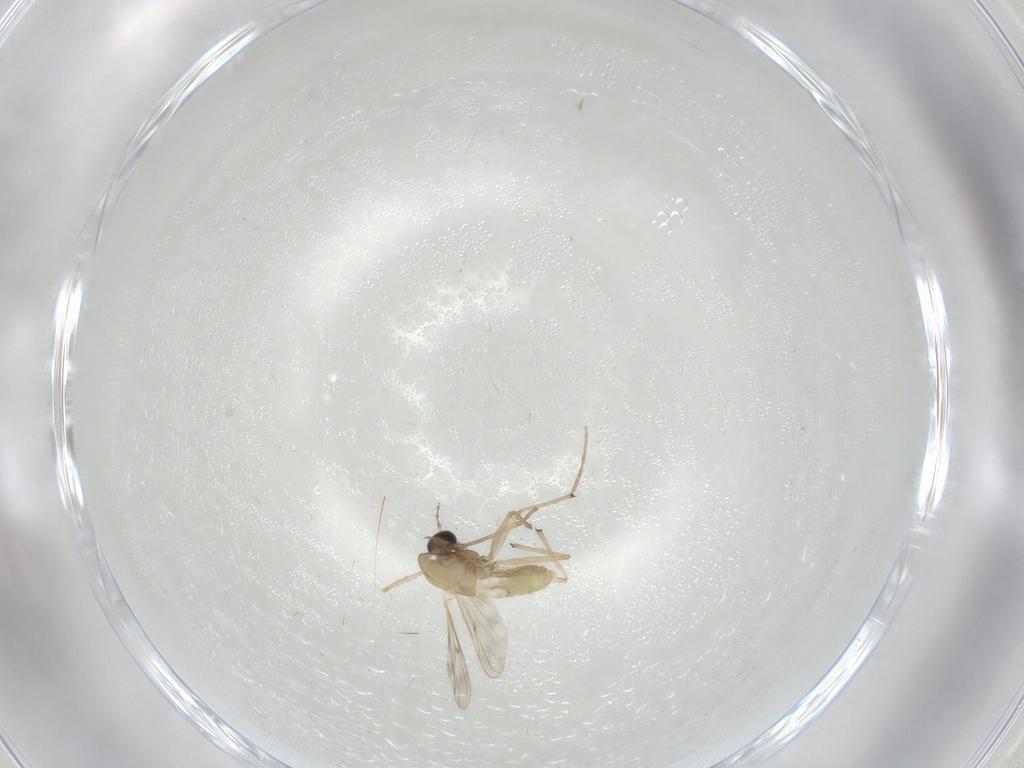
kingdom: Animalia
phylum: Arthropoda
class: Insecta
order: Diptera
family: Chironomidae
